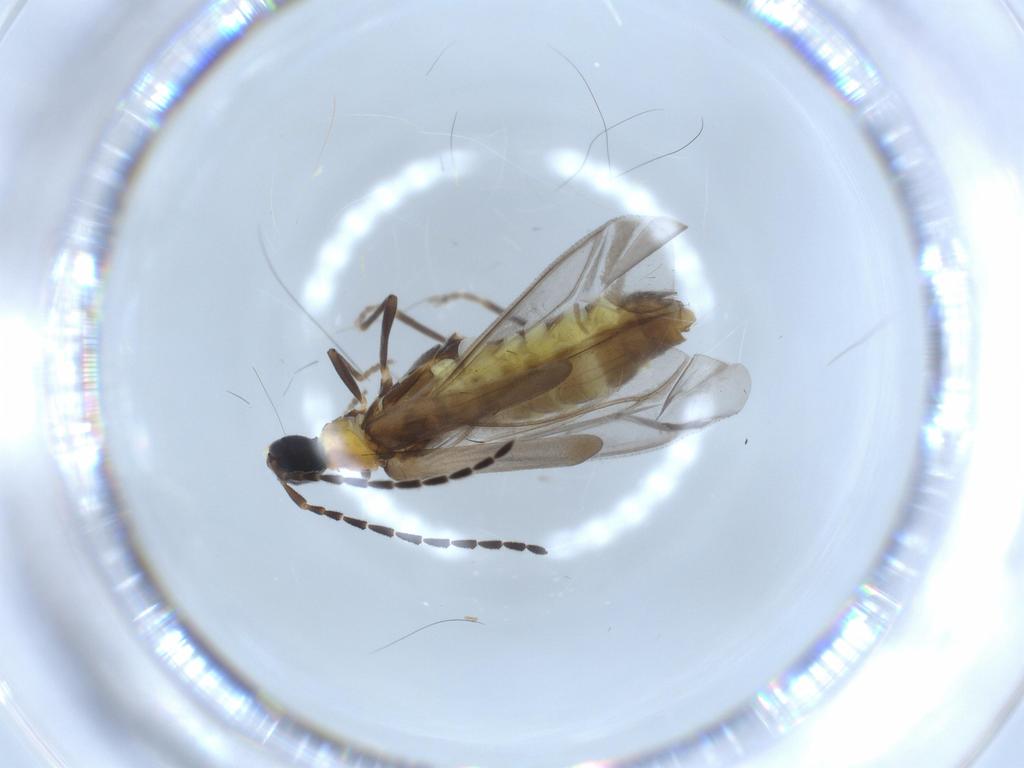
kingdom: Animalia
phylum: Arthropoda
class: Insecta
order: Coleoptera
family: Cantharidae
